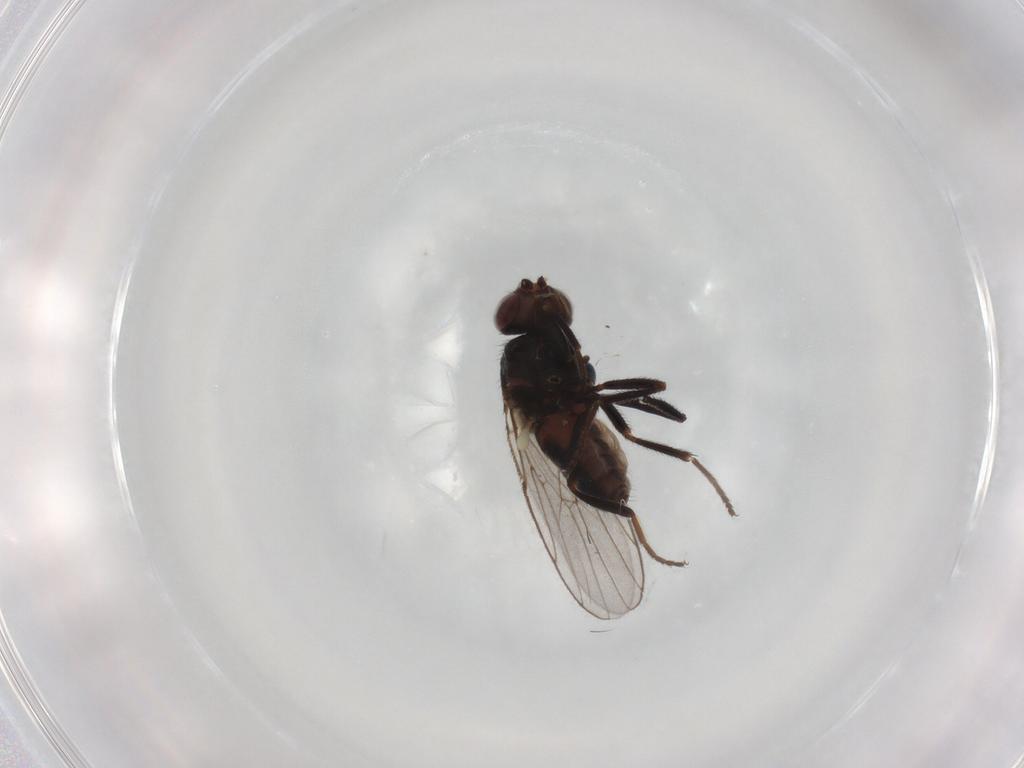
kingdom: Animalia
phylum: Arthropoda
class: Insecta
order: Diptera
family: Chloropidae
